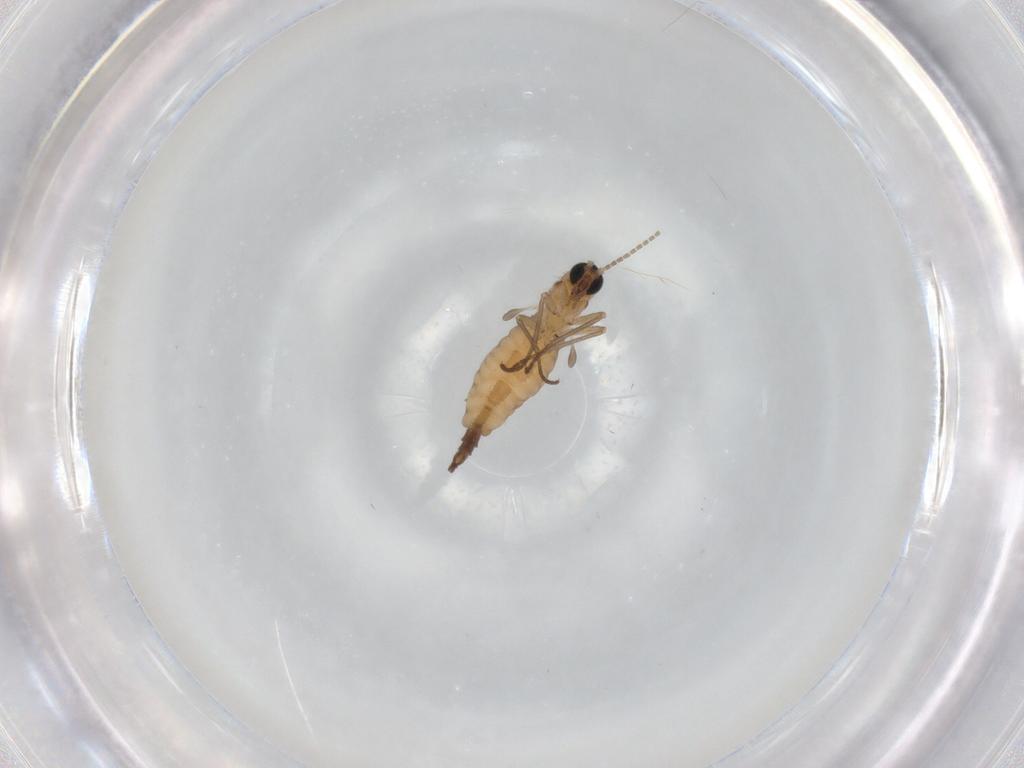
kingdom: Animalia
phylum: Arthropoda
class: Insecta
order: Diptera
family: Sciaridae
